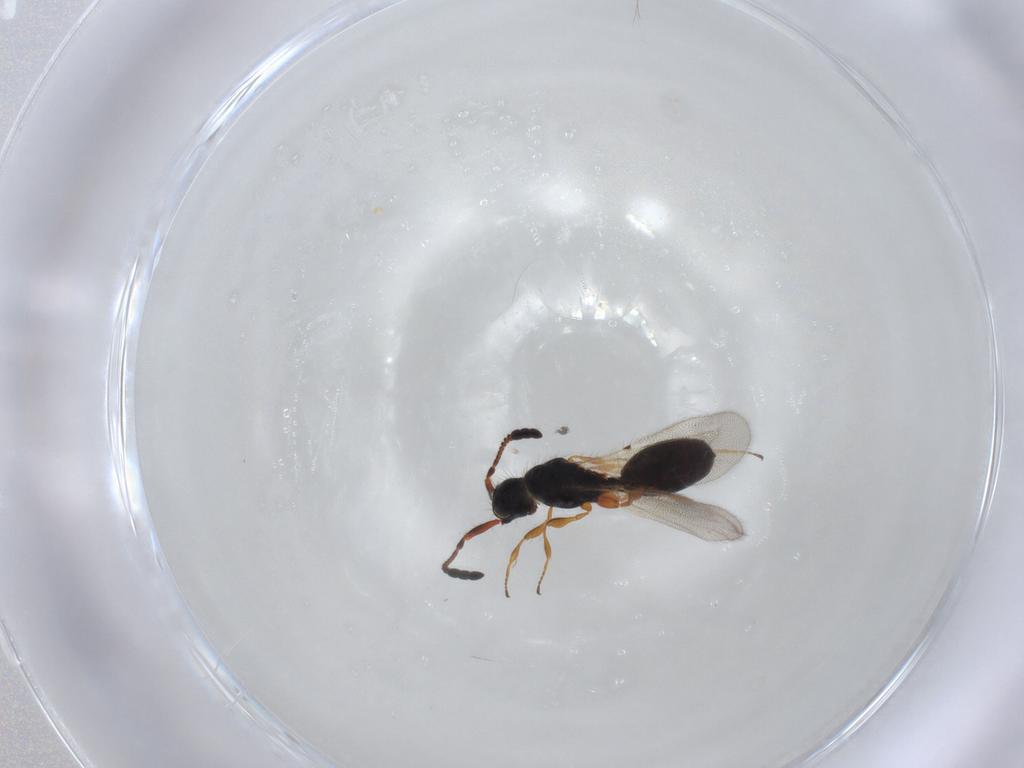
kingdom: Animalia
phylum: Arthropoda
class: Insecta
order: Hymenoptera
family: Diapriidae
